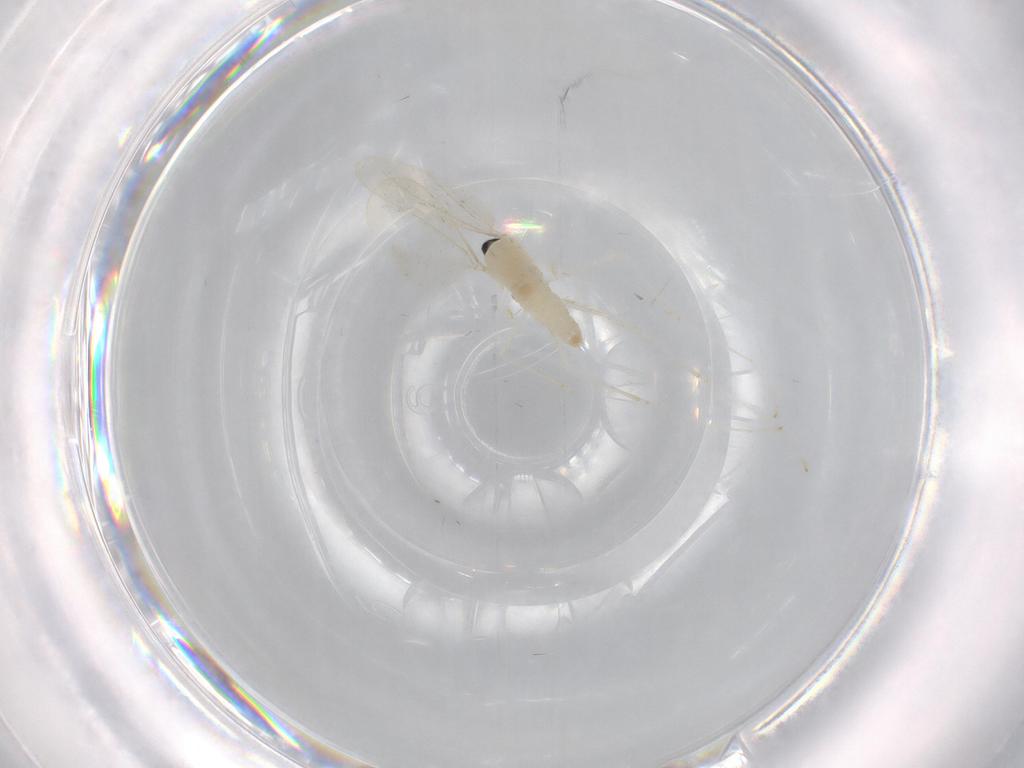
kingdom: Animalia
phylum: Arthropoda
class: Insecta
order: Diptera
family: Cecidomyiidae
